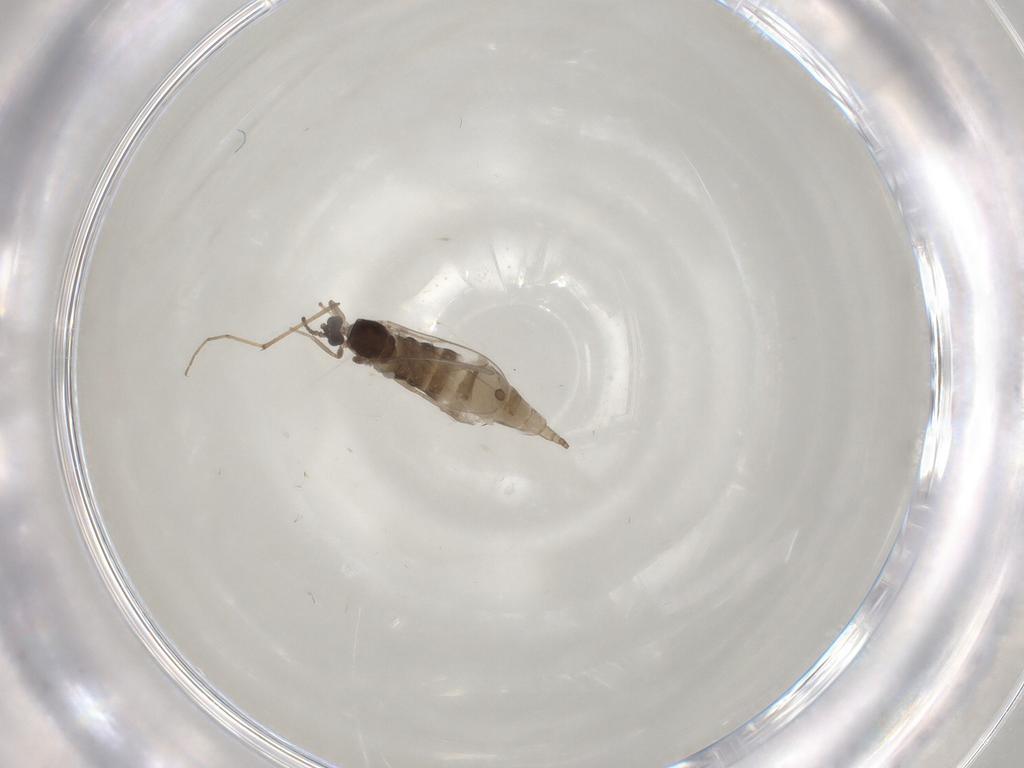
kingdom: Animalia
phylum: Arthropoda
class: Insecta
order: Diptera
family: Cecidomyiidae
